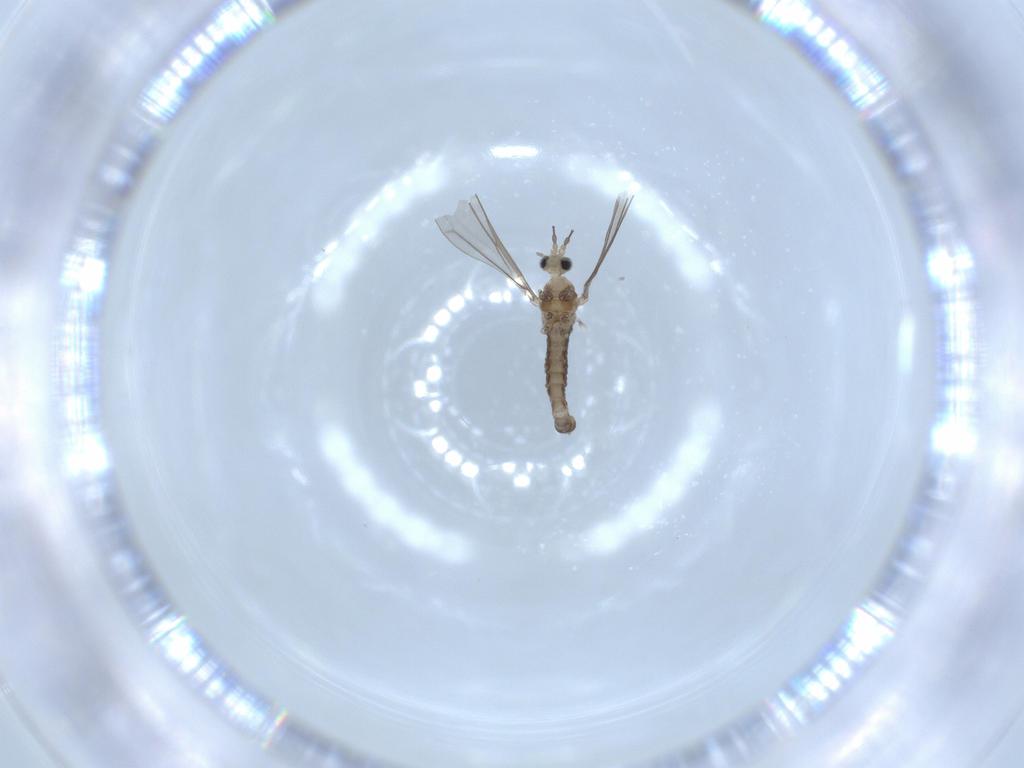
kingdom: Animalia
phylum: Arthropoda
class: Insecta
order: Diptera
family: Cecidomyiidae
